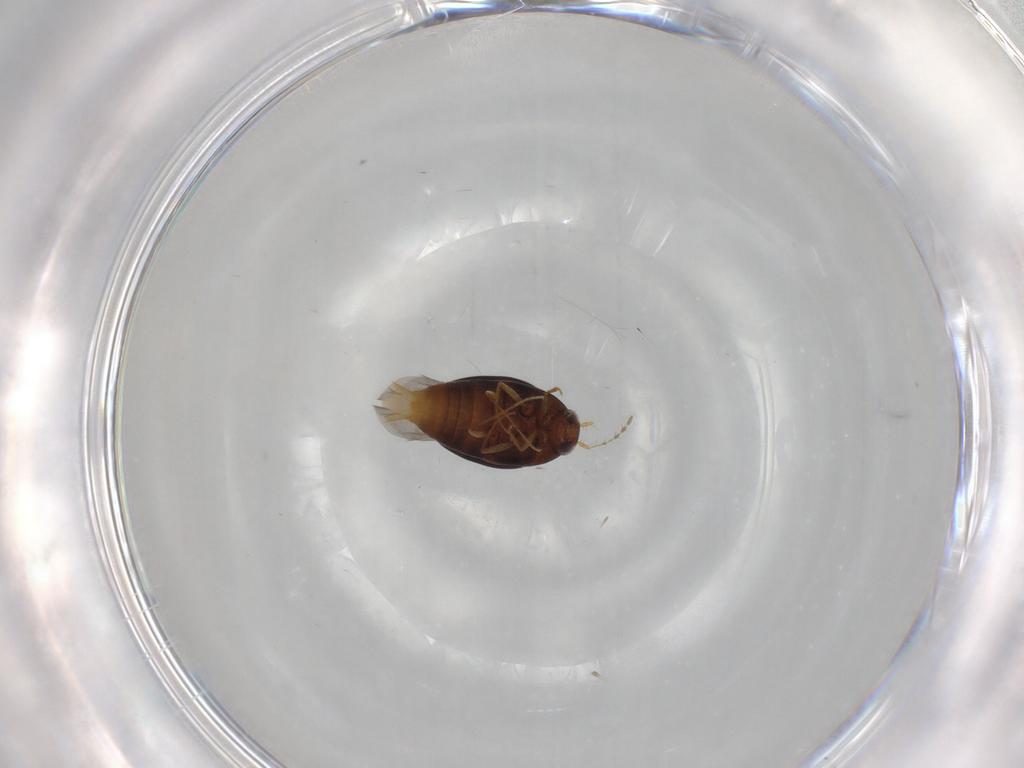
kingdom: Animalia
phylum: Arthropoda
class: Insecta
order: Coleoptera
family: Staphylinidae
